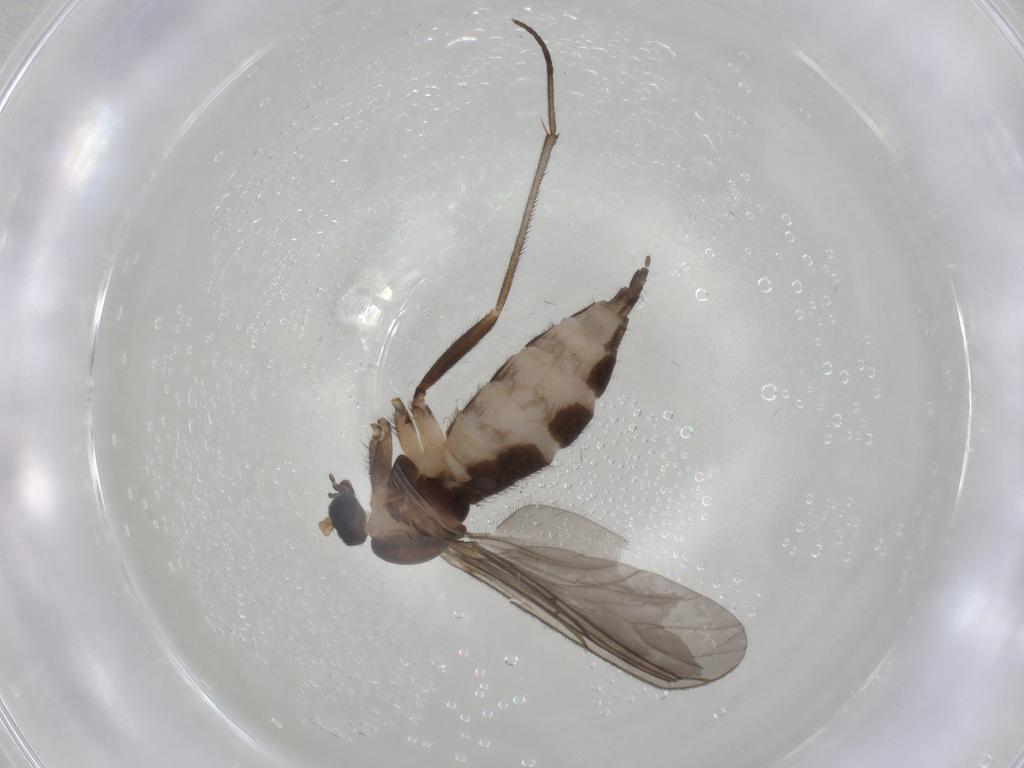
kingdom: Animalia
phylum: Arthropoda
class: Insecta
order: Diptera
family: Sciaridae
